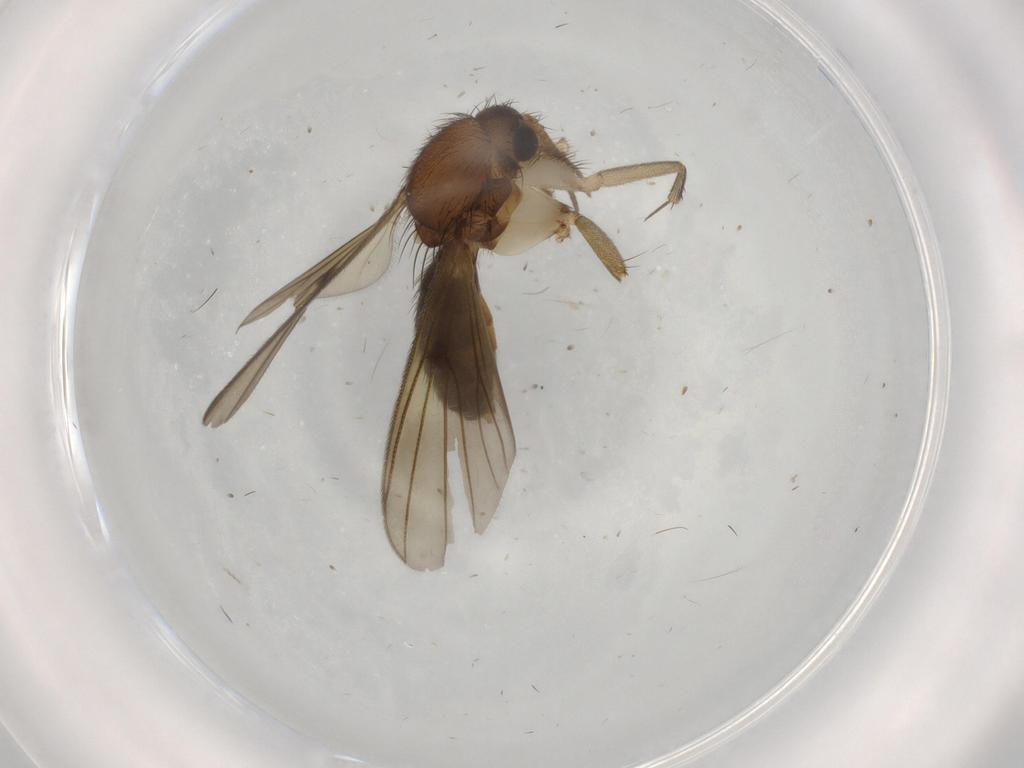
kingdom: Animalia
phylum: Arthropoda
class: Insecta
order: Diptera
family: Mycetophilidae
